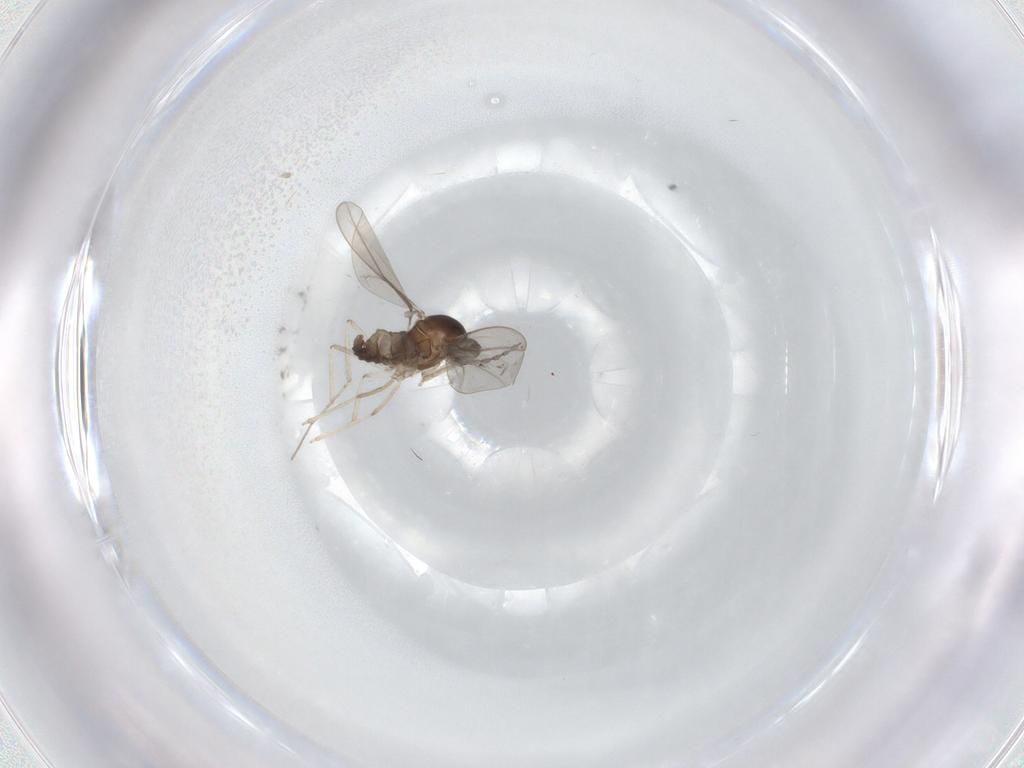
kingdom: Animalia
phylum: Arthropoda
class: Insecta
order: Diptera
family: Cecidomyiidae
